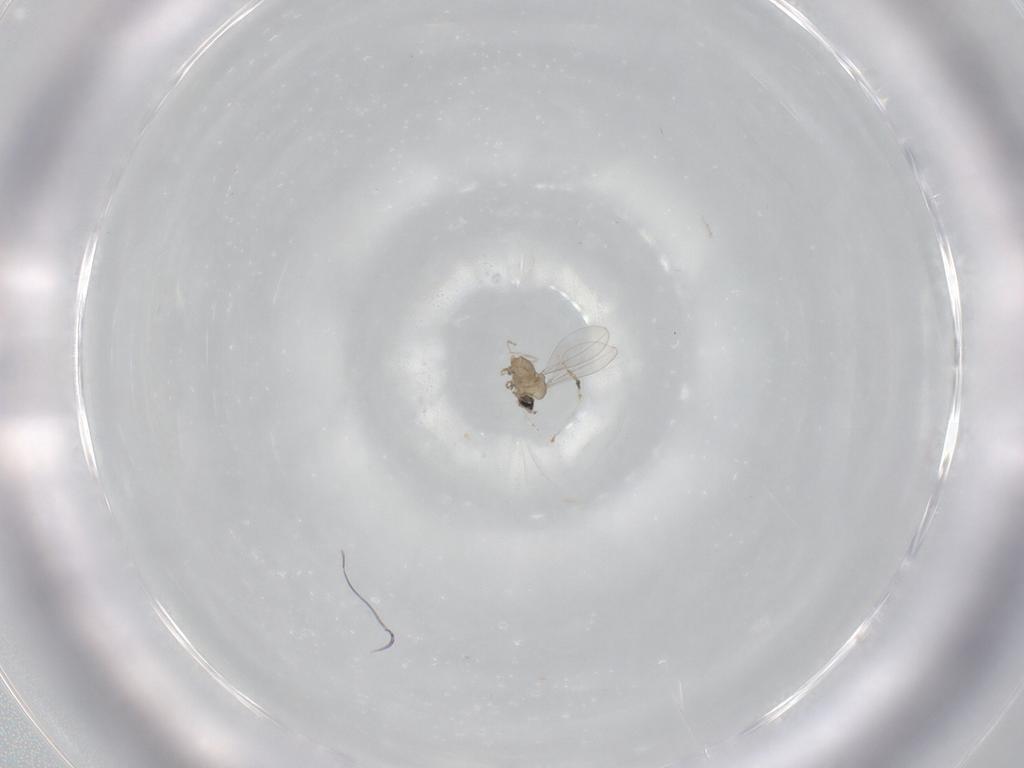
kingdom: Animalia
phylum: Arthropoda
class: Insecta
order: Diptera
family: Cecidomyiidae
